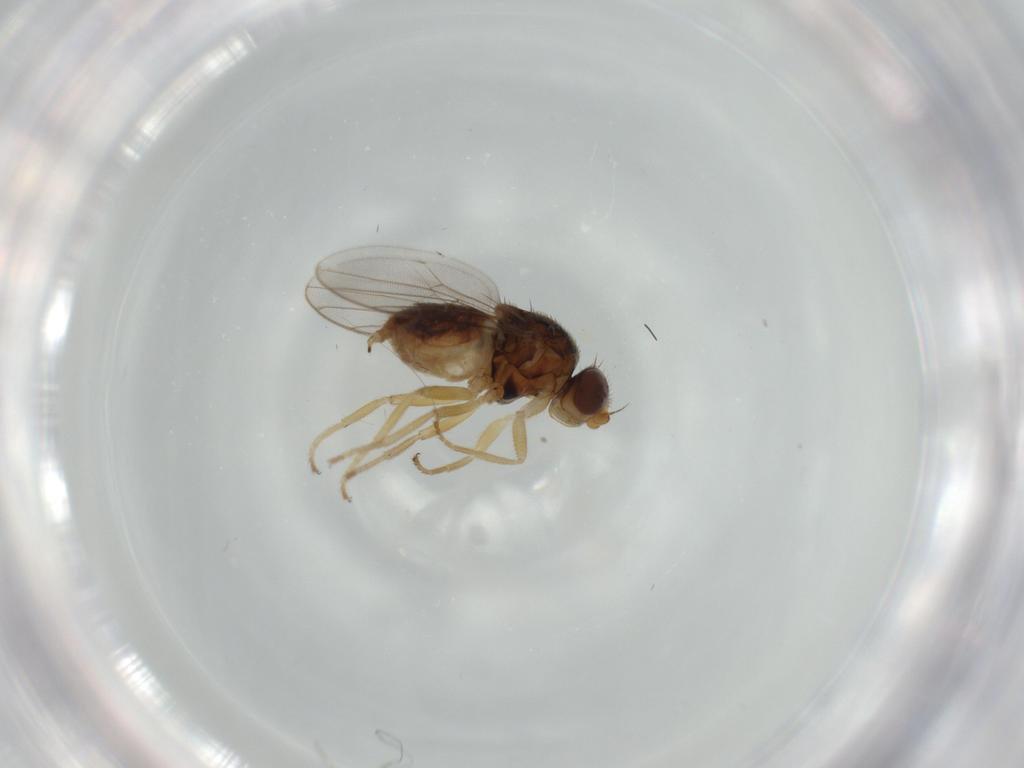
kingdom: Animalia
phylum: Arthropoda
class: Insecta
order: Diptera
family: Chloropidae
